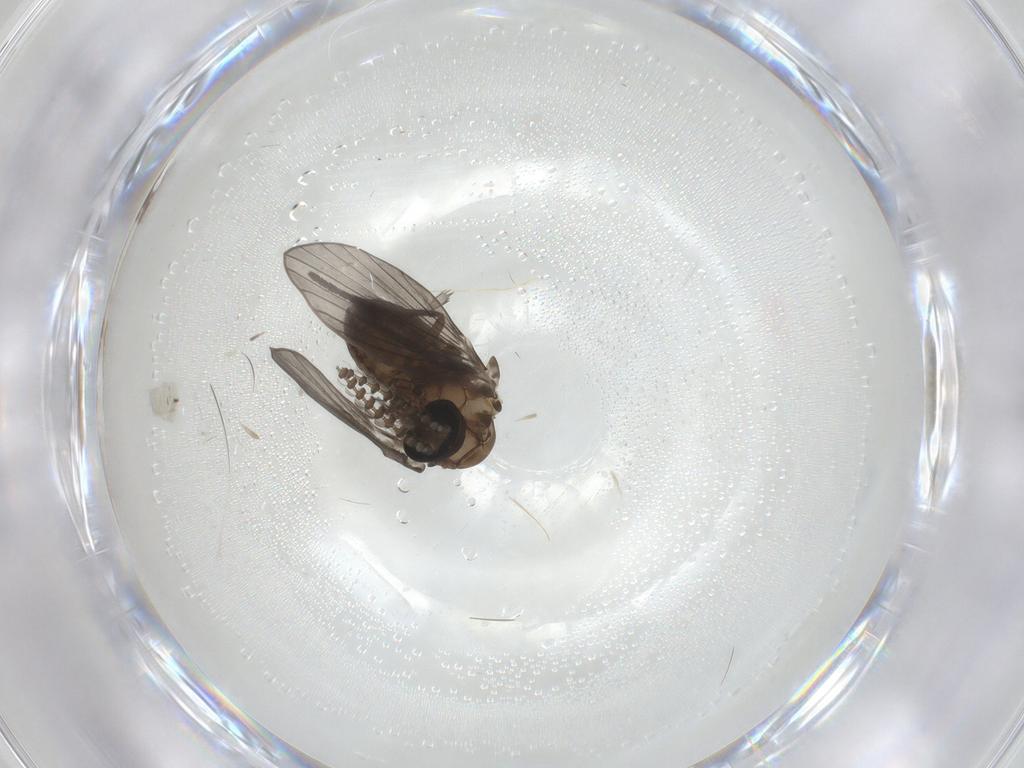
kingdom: Animalia
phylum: Arthropoda
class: Insecta
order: Diptera
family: Psychodidae
